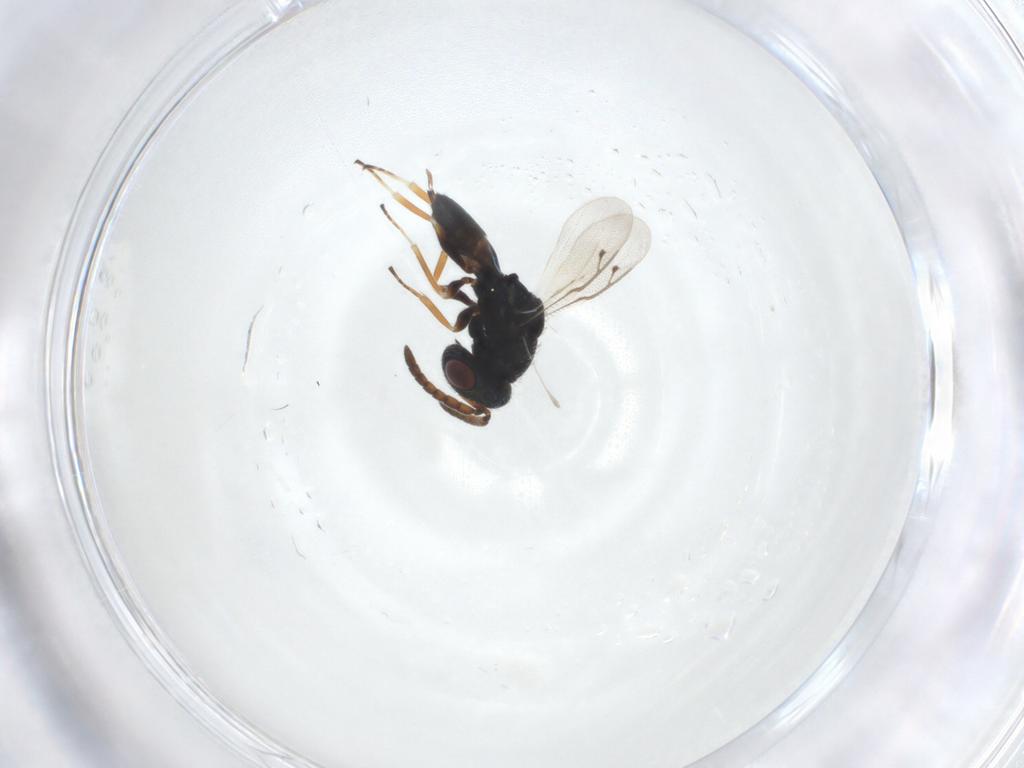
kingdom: Animalia
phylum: Arthropoda
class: Insecta
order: Hymenoptera
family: Pteromalidae
